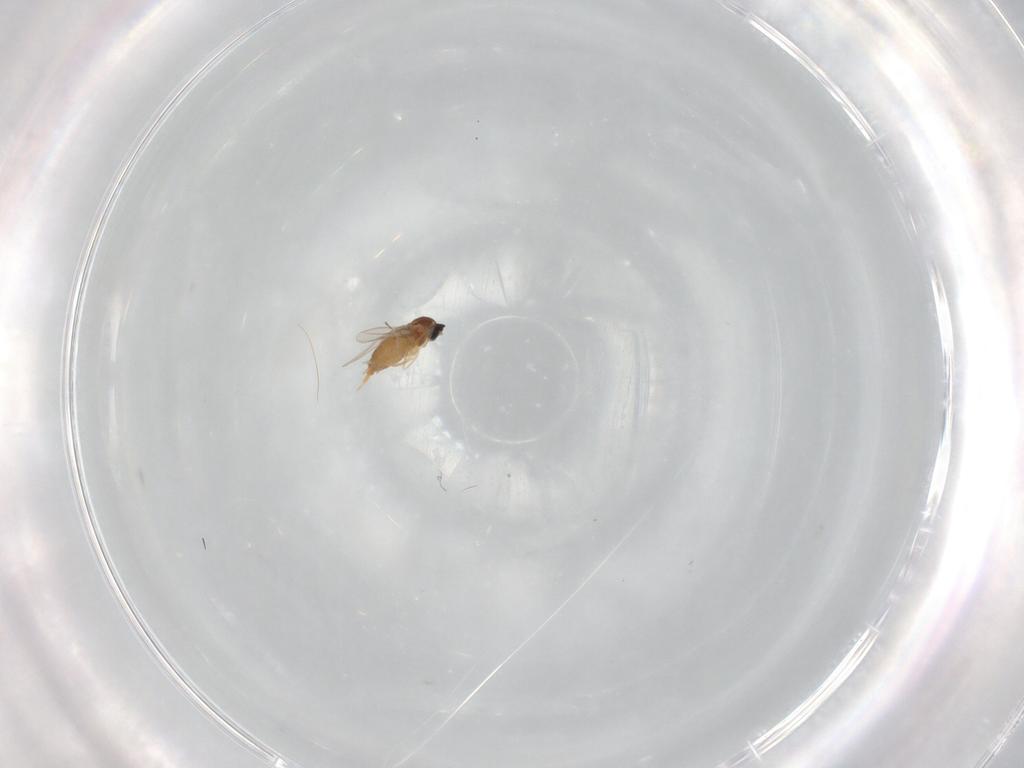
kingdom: Animalia
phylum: Arthropoda
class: Insecta
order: Diptera
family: Cecidomyiidae
